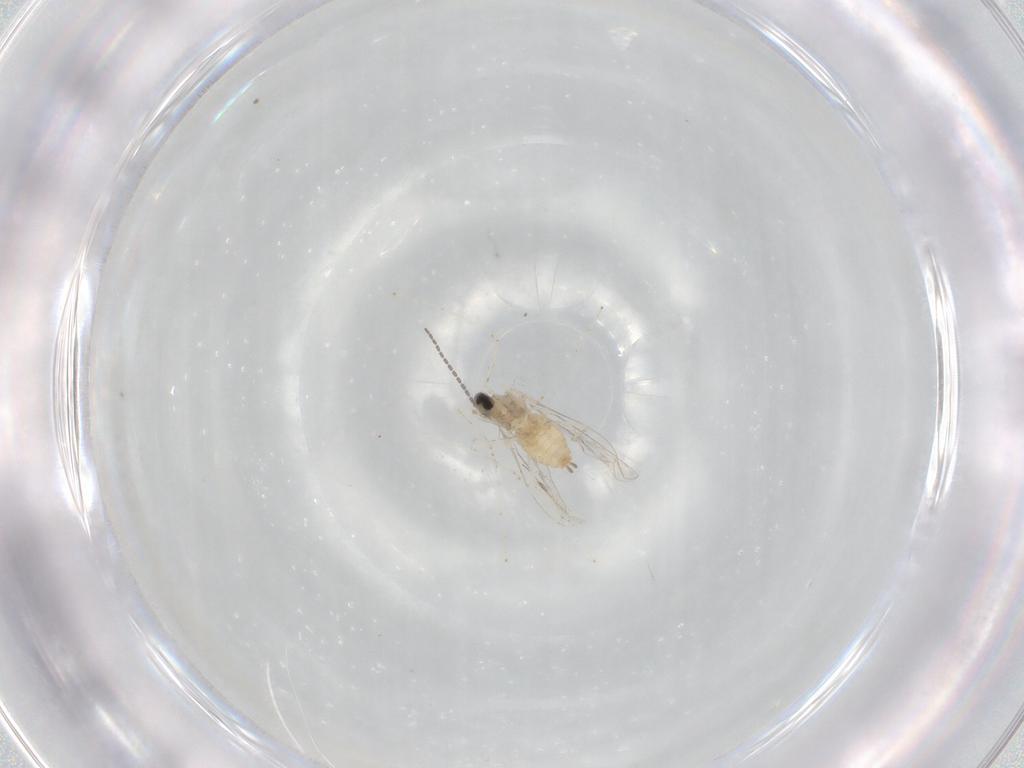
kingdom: Animalia
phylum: Arthropoda
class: Insecta
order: Diptera
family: Cecidomyiidae
